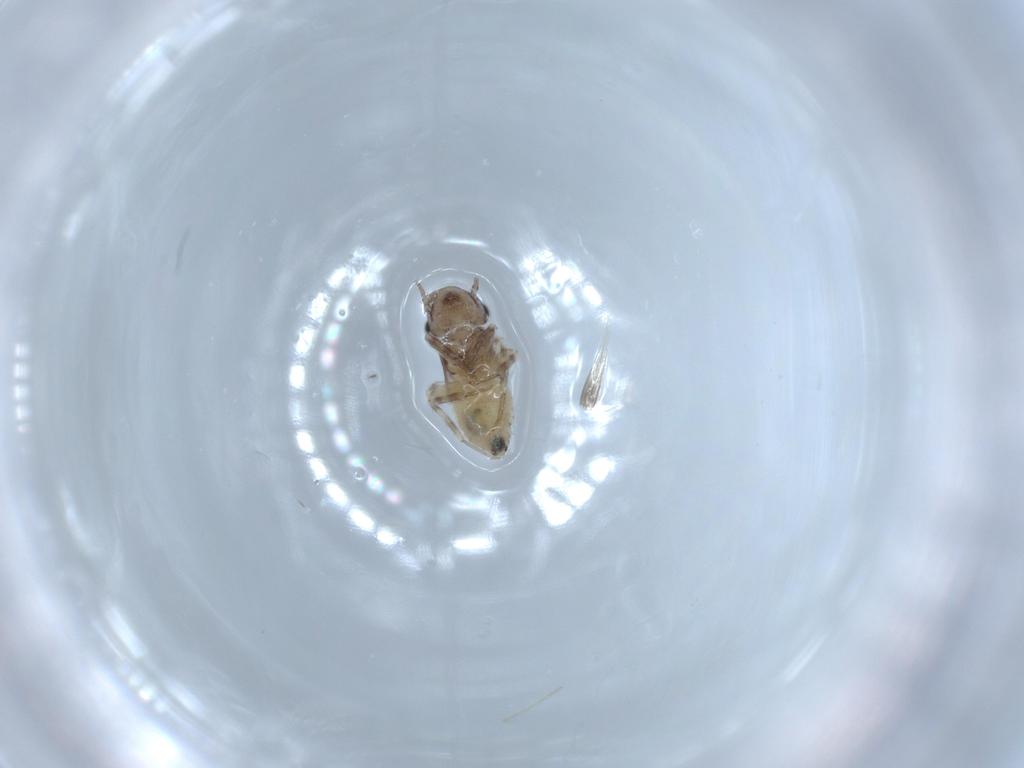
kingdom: Animalia
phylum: Arthropoda
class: Insecta
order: Psocodea
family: Lepidopsocidae
